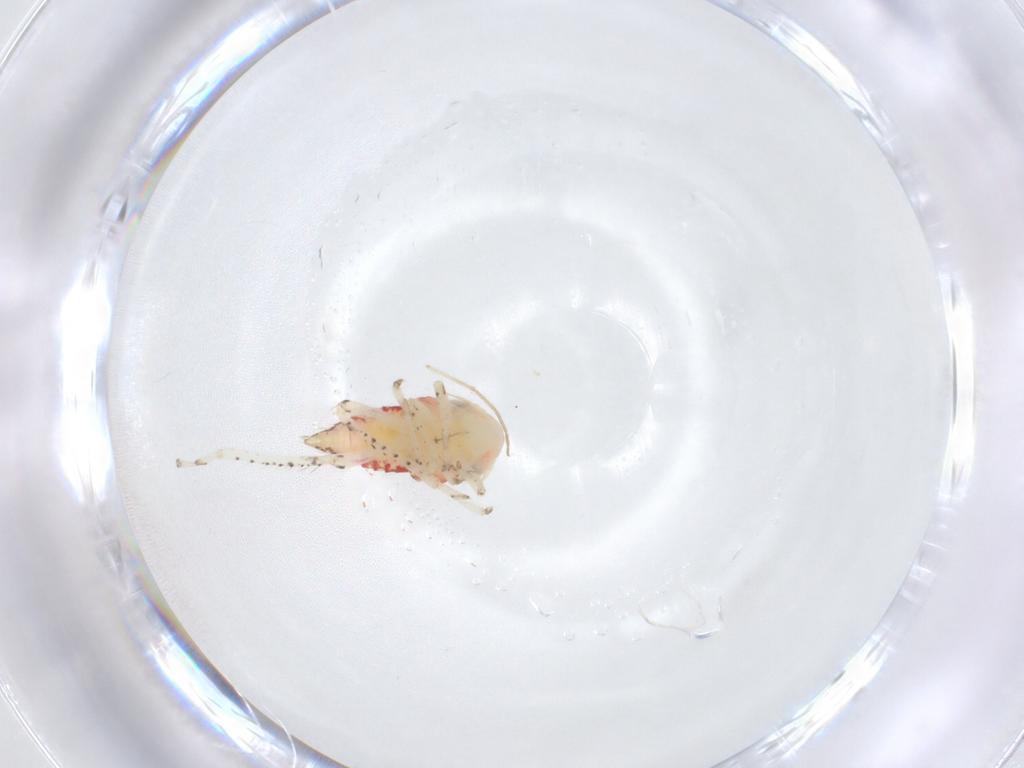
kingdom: Animalia
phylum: Arthropoda
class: Insecta
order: Hemiptera
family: Cicadellidae
